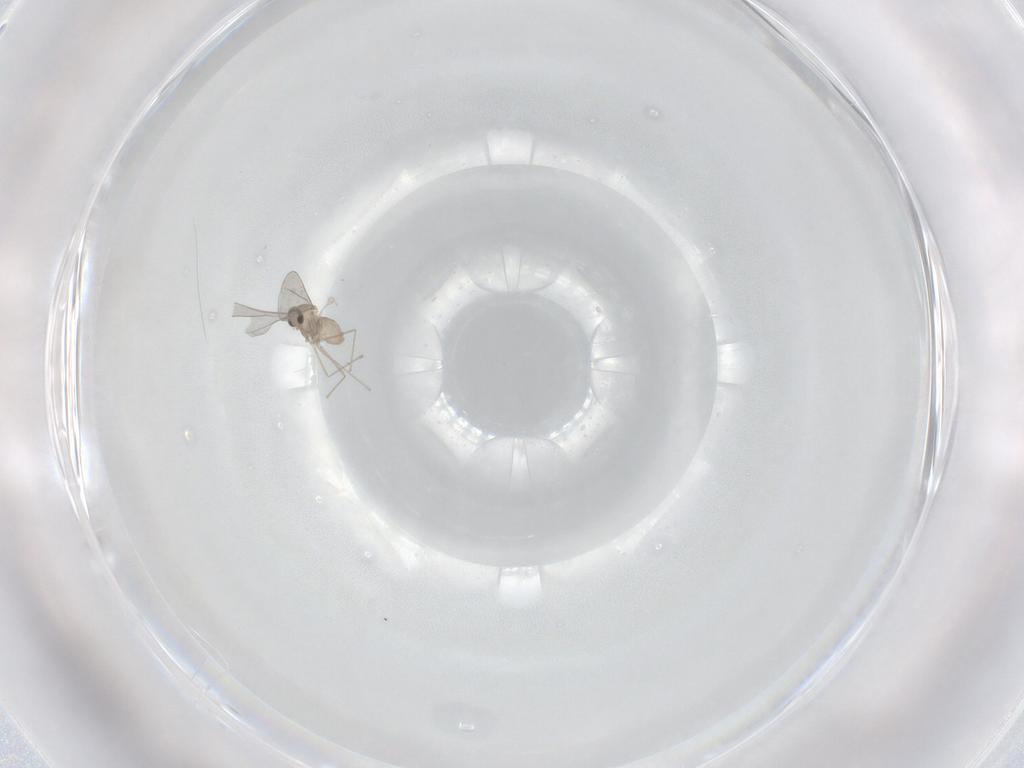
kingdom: Animalia
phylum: Arthropoda
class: Insecta
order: Diptera
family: Cecidomyiidae
